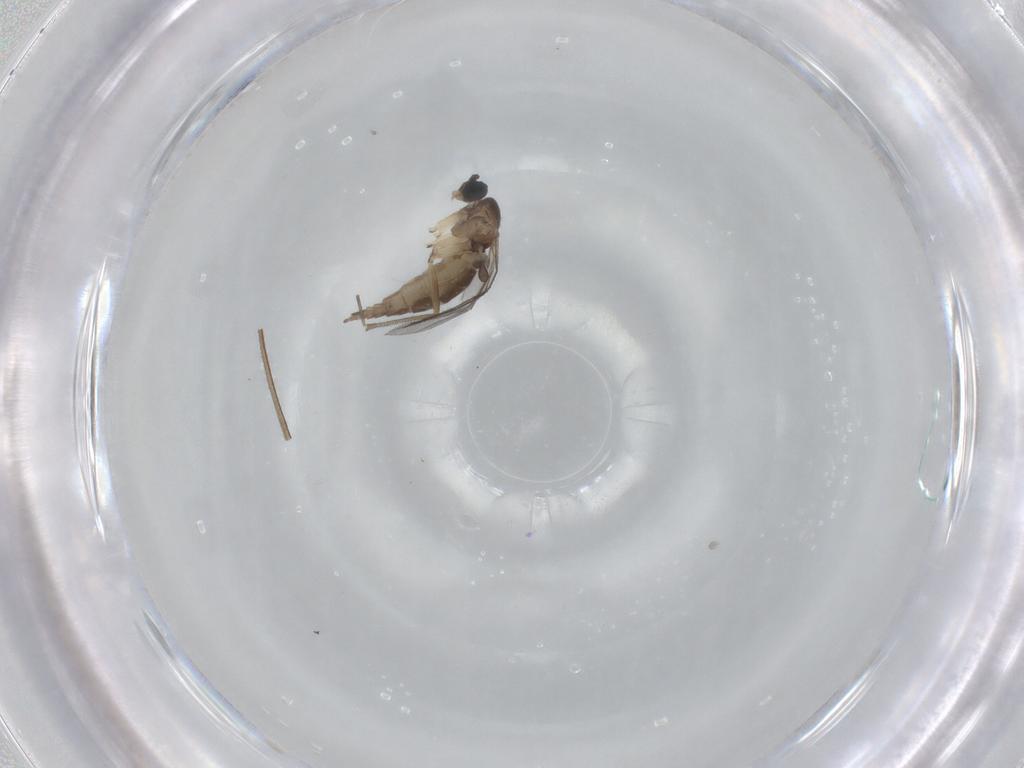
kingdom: Animalia
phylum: Arthropoda
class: Insecta
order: Diptera
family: Sciaridae
